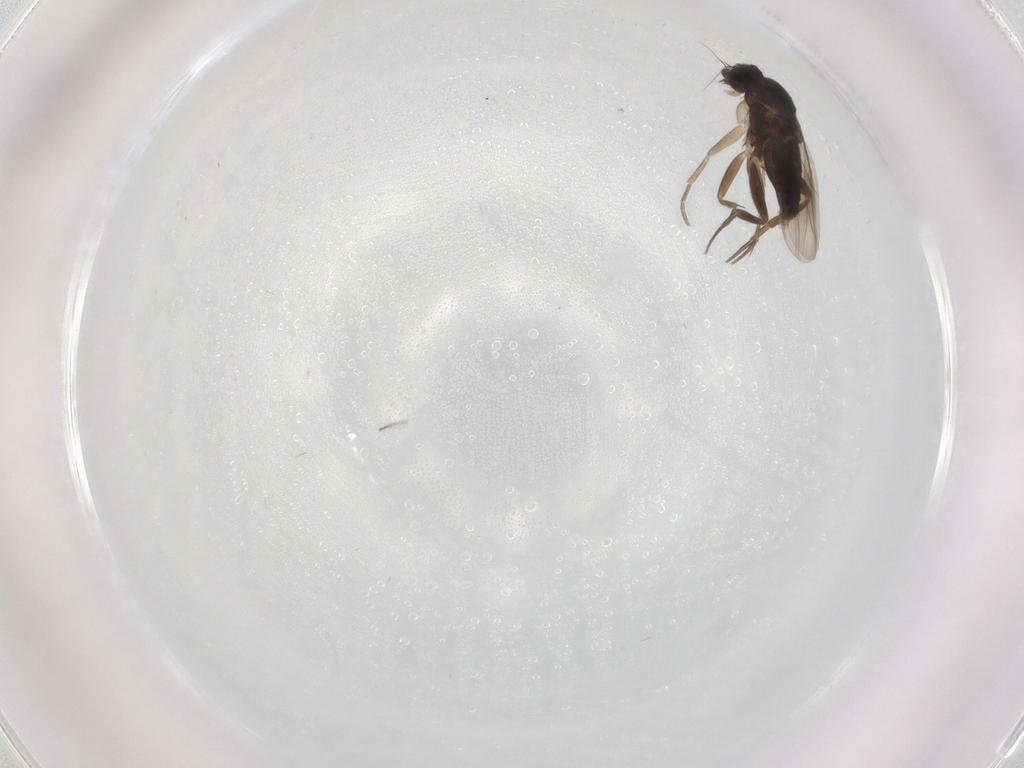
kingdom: Animalia
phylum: Arthropoda
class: Insecta
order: Diptera
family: Phoridae
